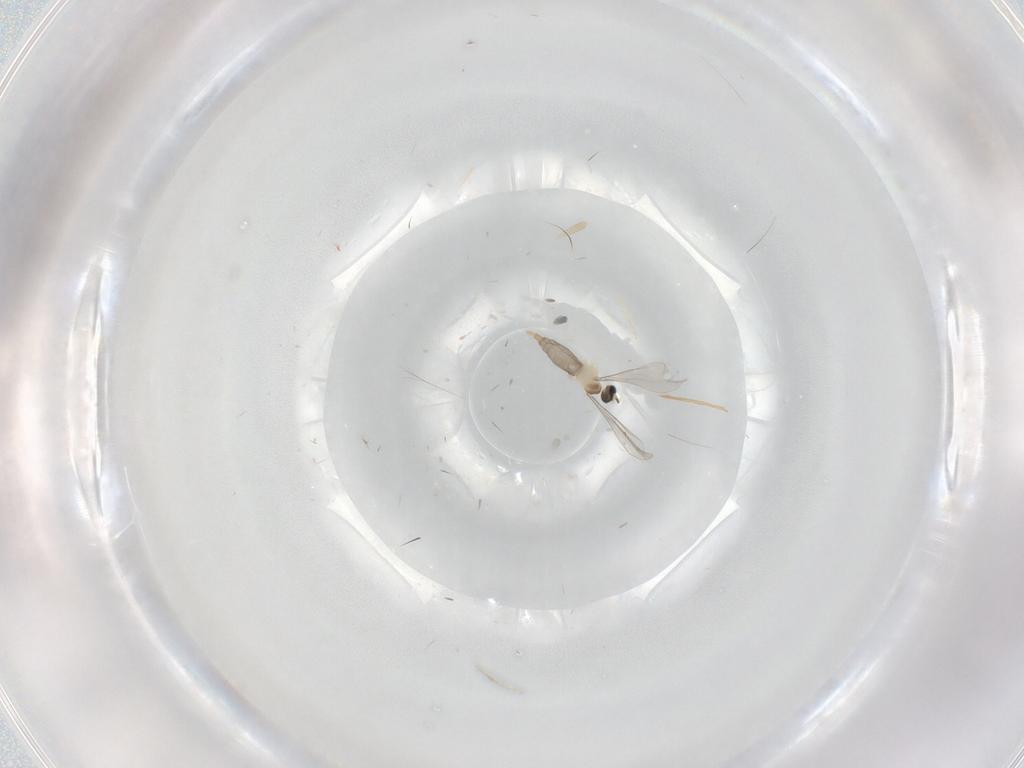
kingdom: Animalia
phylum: Arthropoda
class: Insecta
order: Diptera
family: Cecidomyiidae
